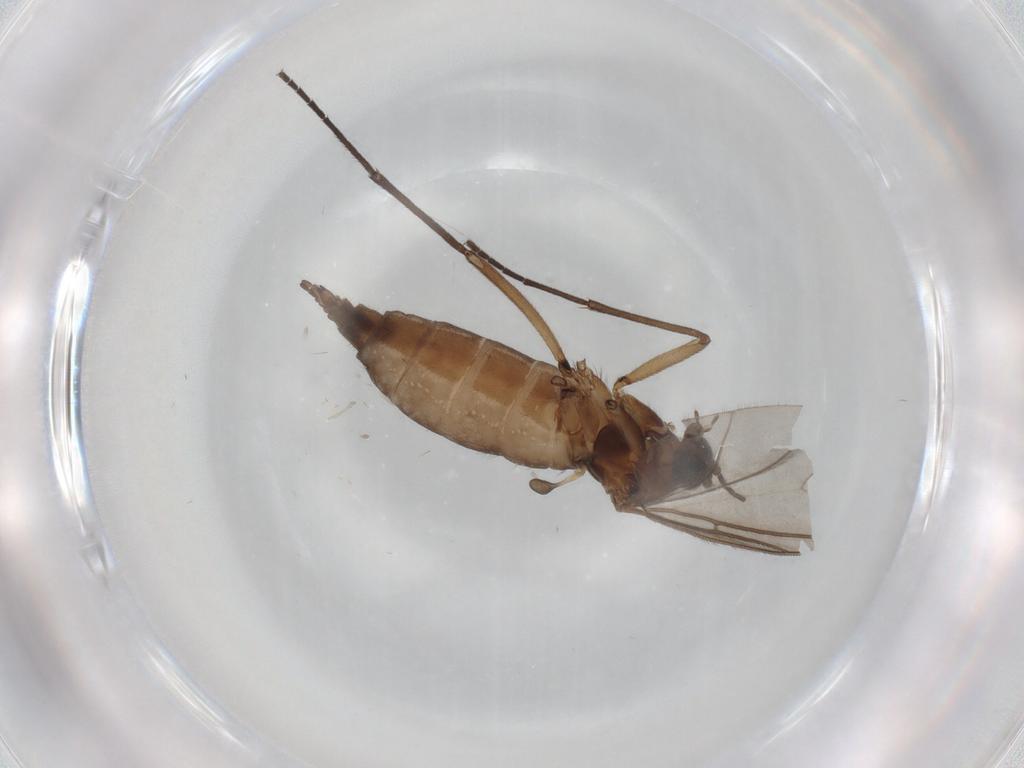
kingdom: Animalia
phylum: Arthropoda
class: Insecta
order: Diptera
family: Sciaridae
